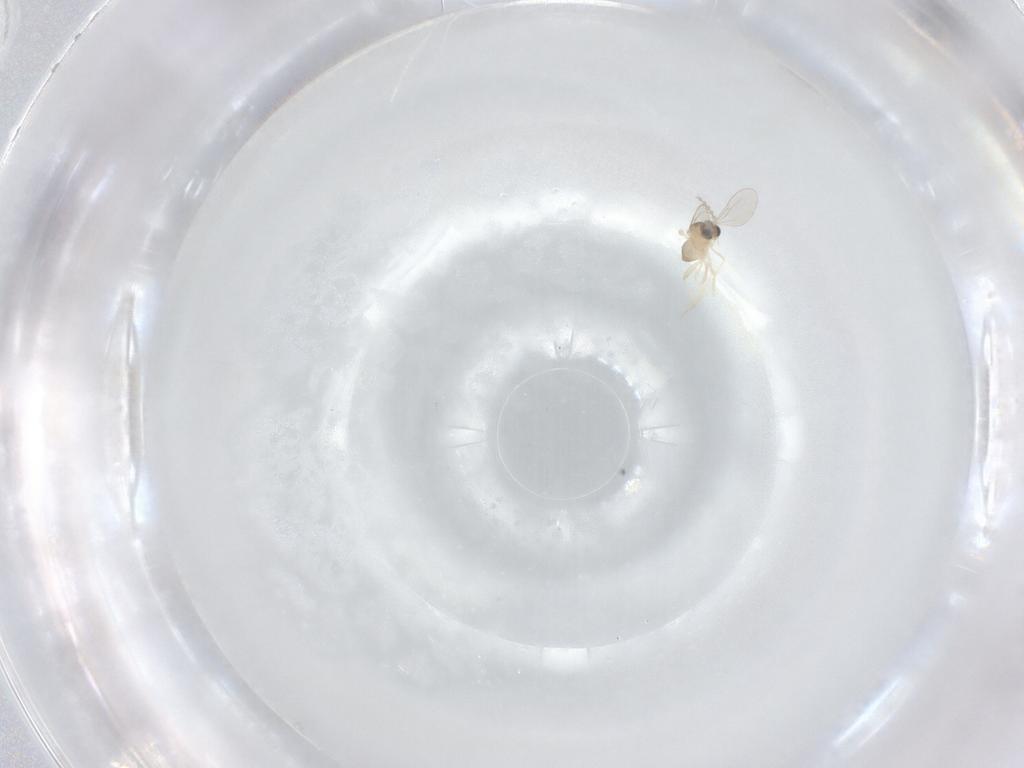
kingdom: Animalia
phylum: Arthropoda
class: Insecta
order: Diptera
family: Cecidomyiidae
